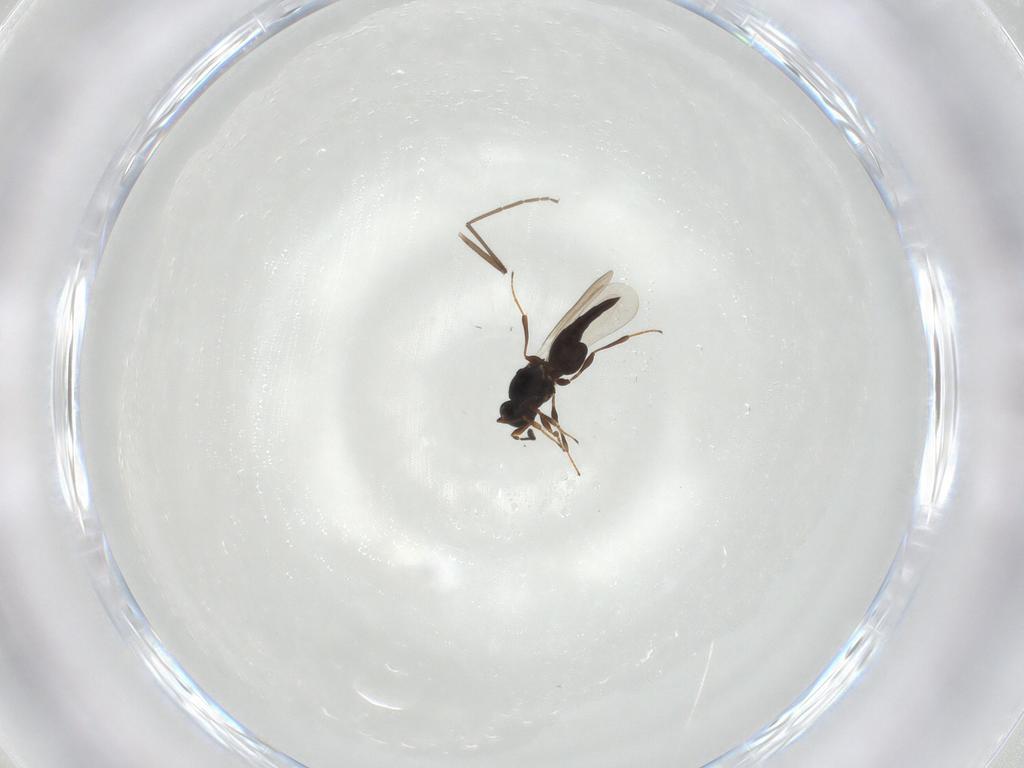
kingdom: Animalia
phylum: Arthropoda
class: Insecta
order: Hymenoptera
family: Platygastridae
